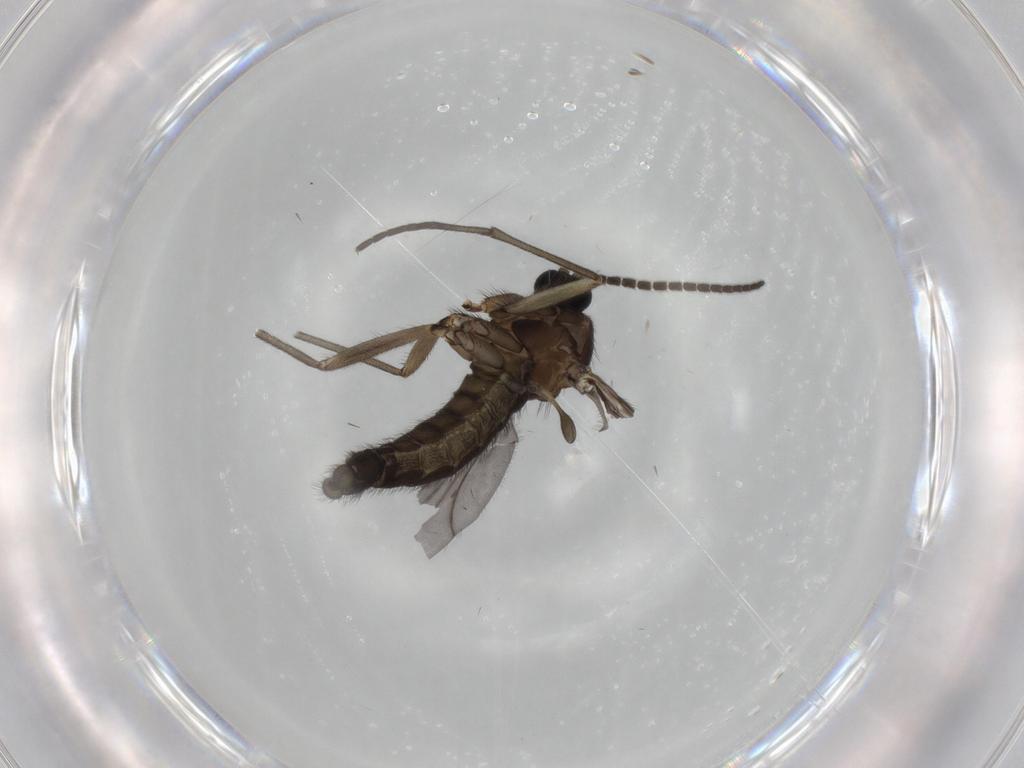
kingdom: Animalia
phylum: Arthropoda
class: Insecta
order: Diptera
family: Sciaridae
